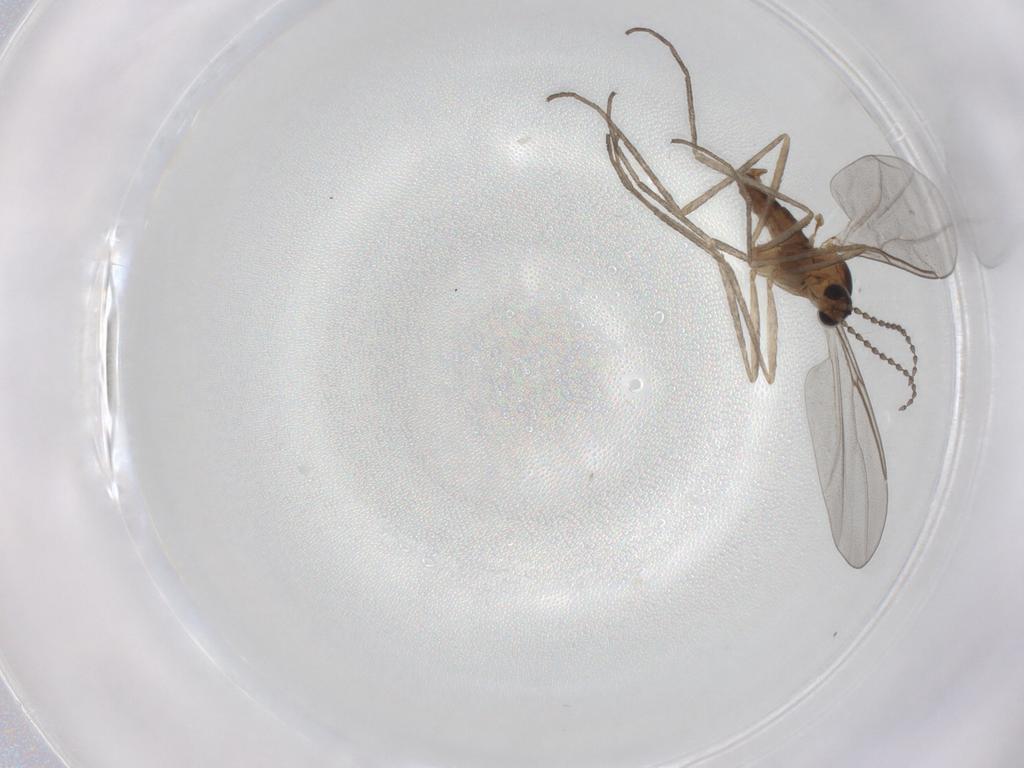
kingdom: Animalia
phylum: Arthropoda
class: Insecta
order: Diptera
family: Cecidomyiidae
